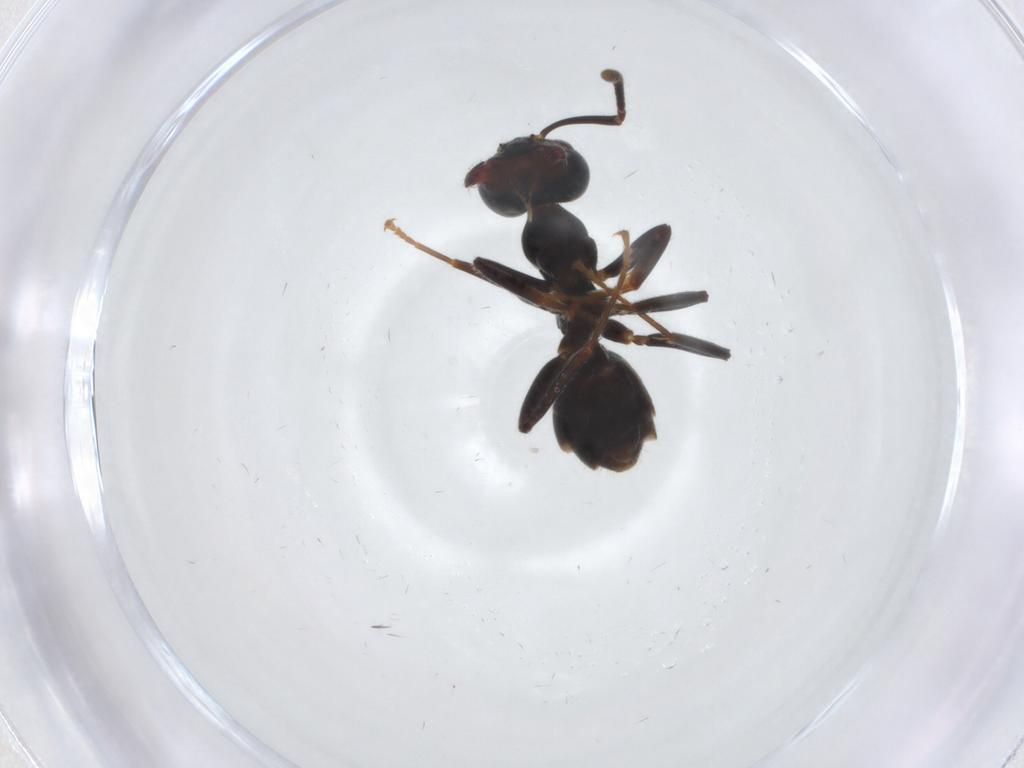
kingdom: Animalia
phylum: Arthropoda
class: Insecta
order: Hymenoptera
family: Formicidae
